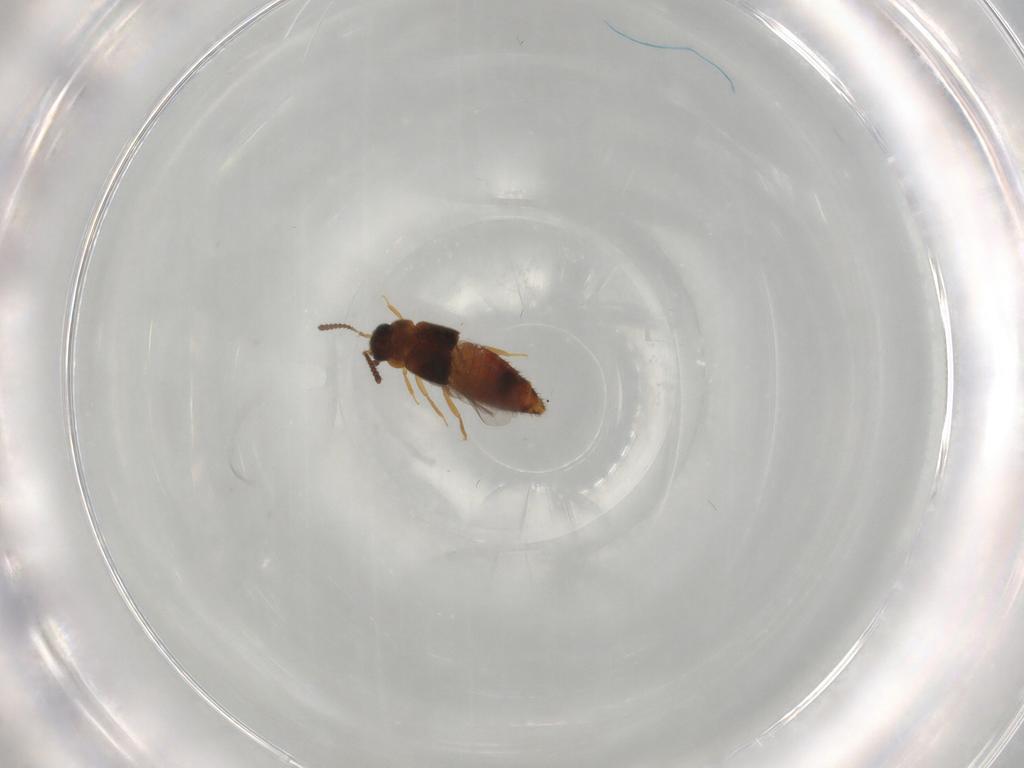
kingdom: Animalia
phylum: Arthropoda
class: Insecta
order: Coleoptera
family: Staphylinidae
